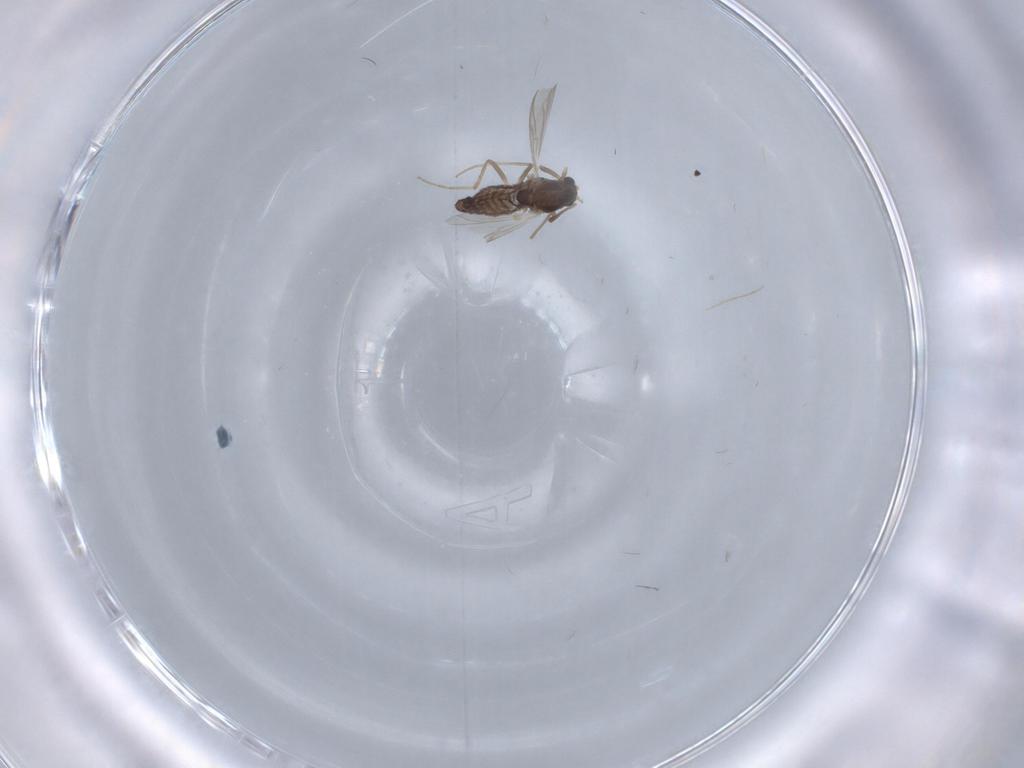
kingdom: Animalia
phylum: Arthropoda
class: Insecta
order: Diptera
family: Chironomidae
